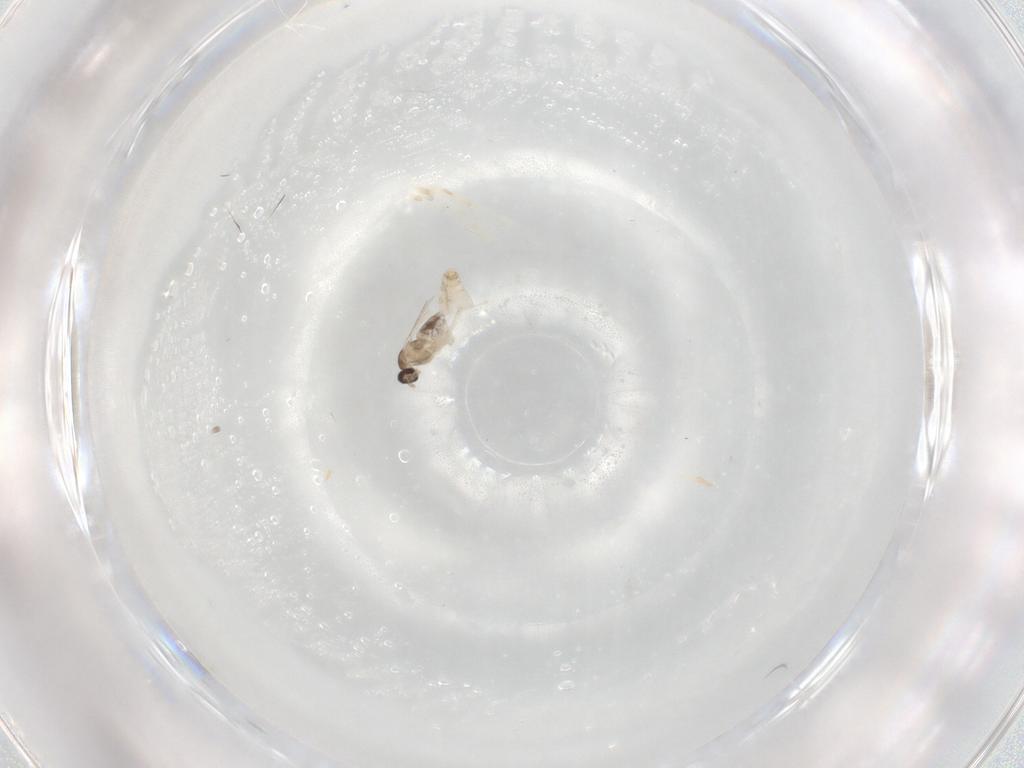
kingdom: Animalia
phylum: Arthropoda
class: Insecta
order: Diptera
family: Cecidomyiidae
